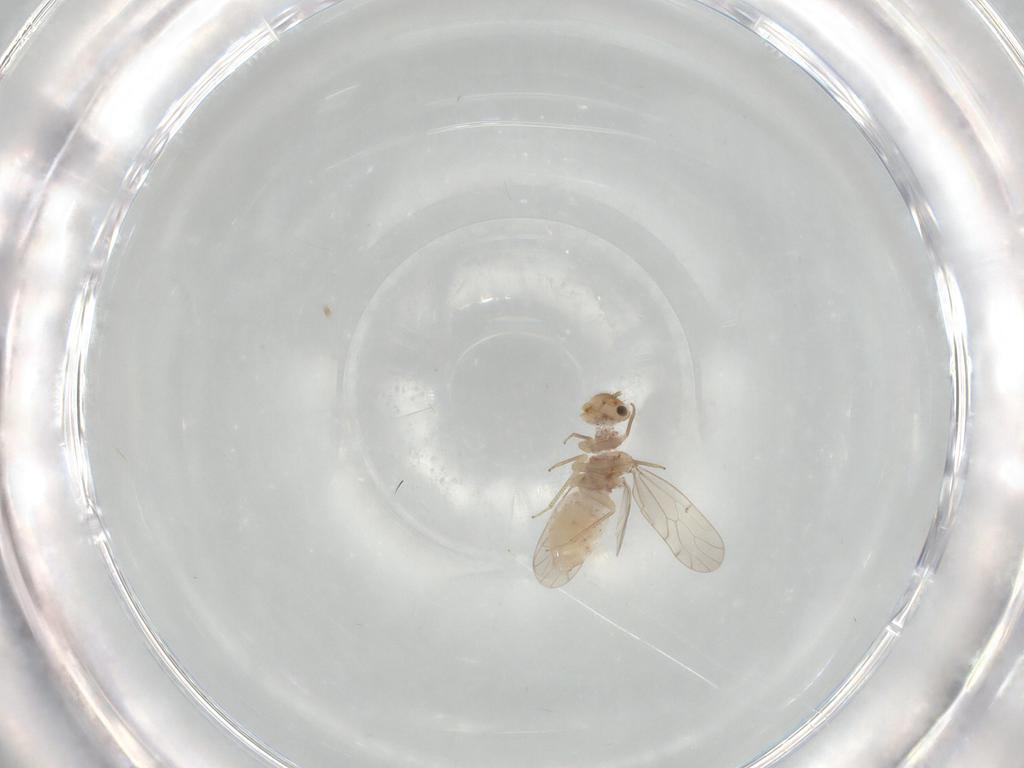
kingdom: Animalia
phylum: Arthropoda
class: Insecta
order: Psocodea
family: Ectopsocidae
